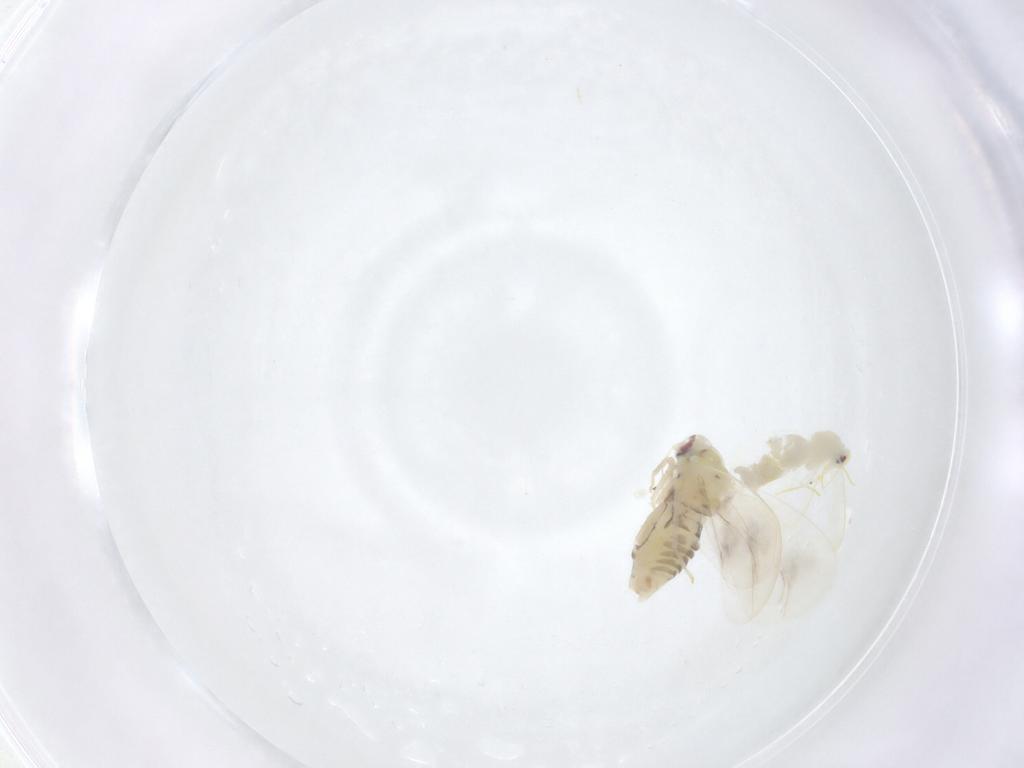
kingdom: Animalia
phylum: Arthropoda
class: Insecta
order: Hemiptera
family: Aleyrodidae
